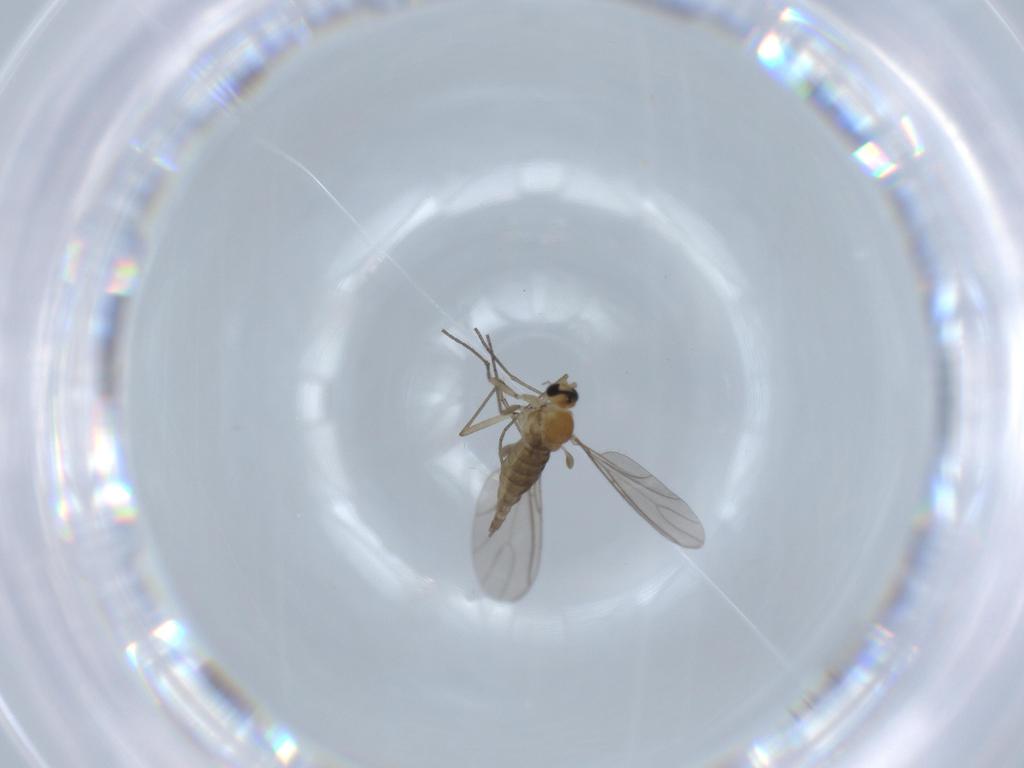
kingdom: Animalia
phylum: Arthropoda
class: Insecta
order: Diptera
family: Sciaridae
